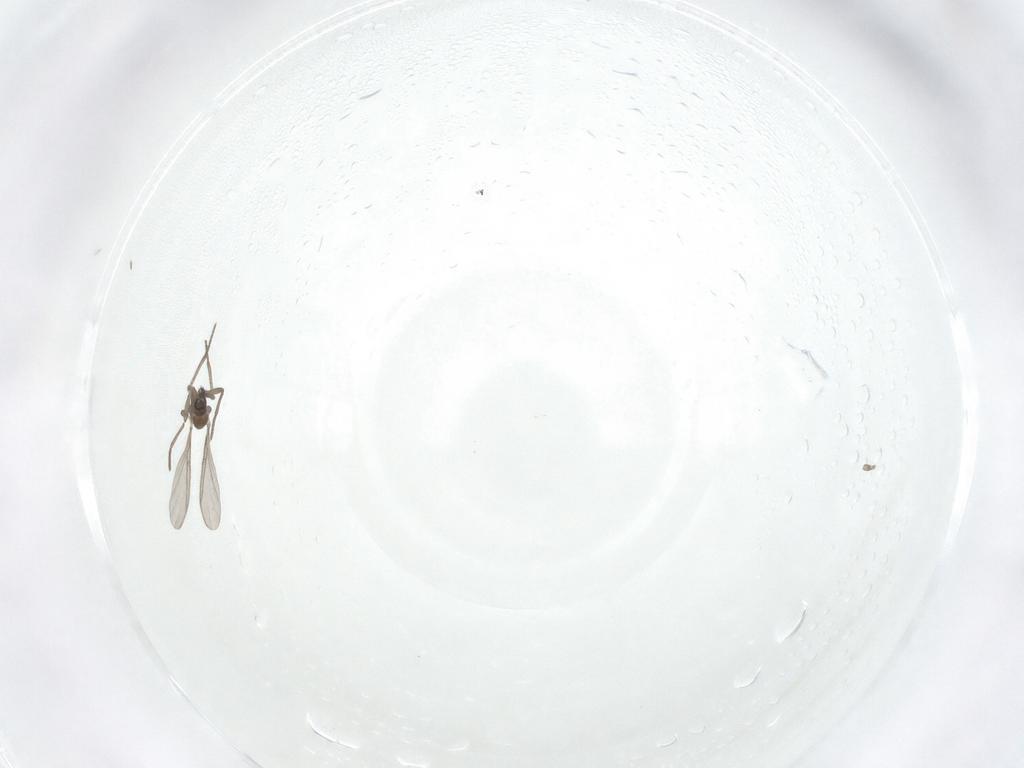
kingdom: Animalia
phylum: Arthropoda
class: Insecta
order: Diptera
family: Sciaridae
